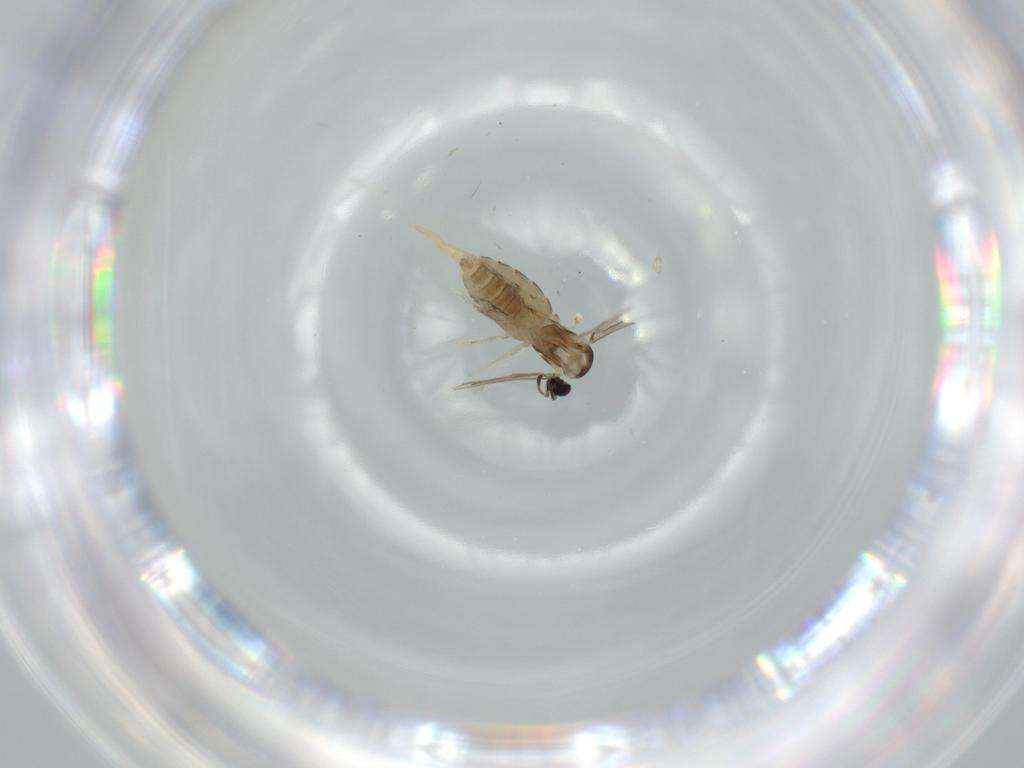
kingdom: Animalia
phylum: Arthropoda
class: Insecta
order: Diptera
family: Cecidomyiidae
